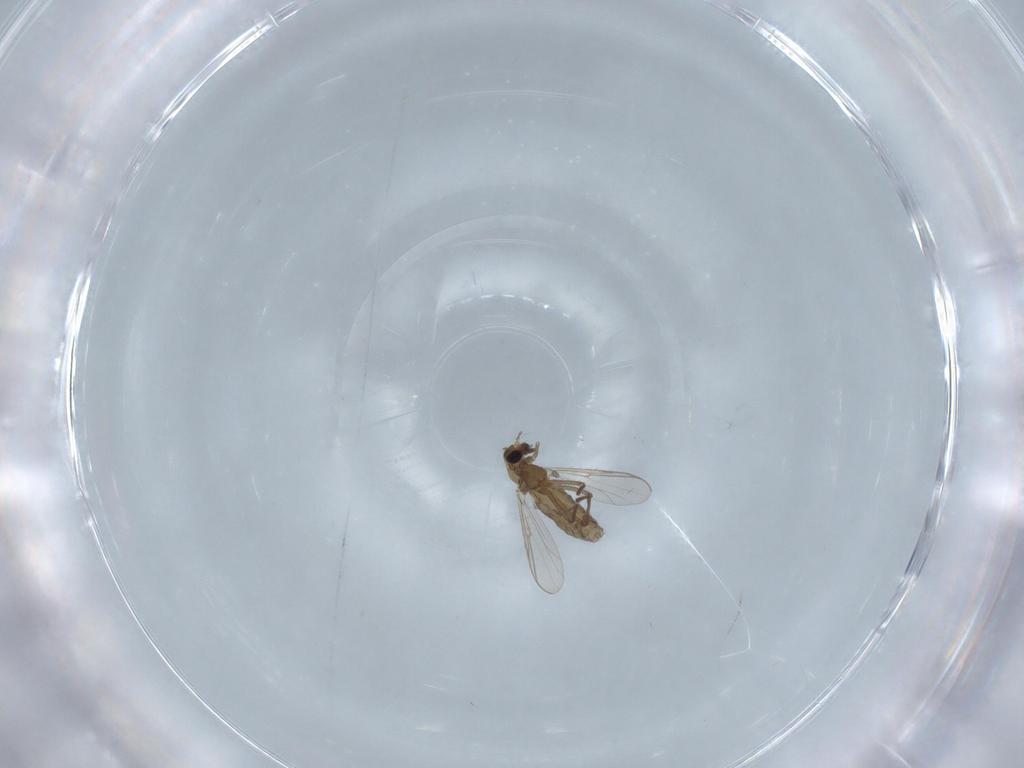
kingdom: Animalia
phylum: Arthropoda
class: Insecta
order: Diptera
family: Chironomidae
